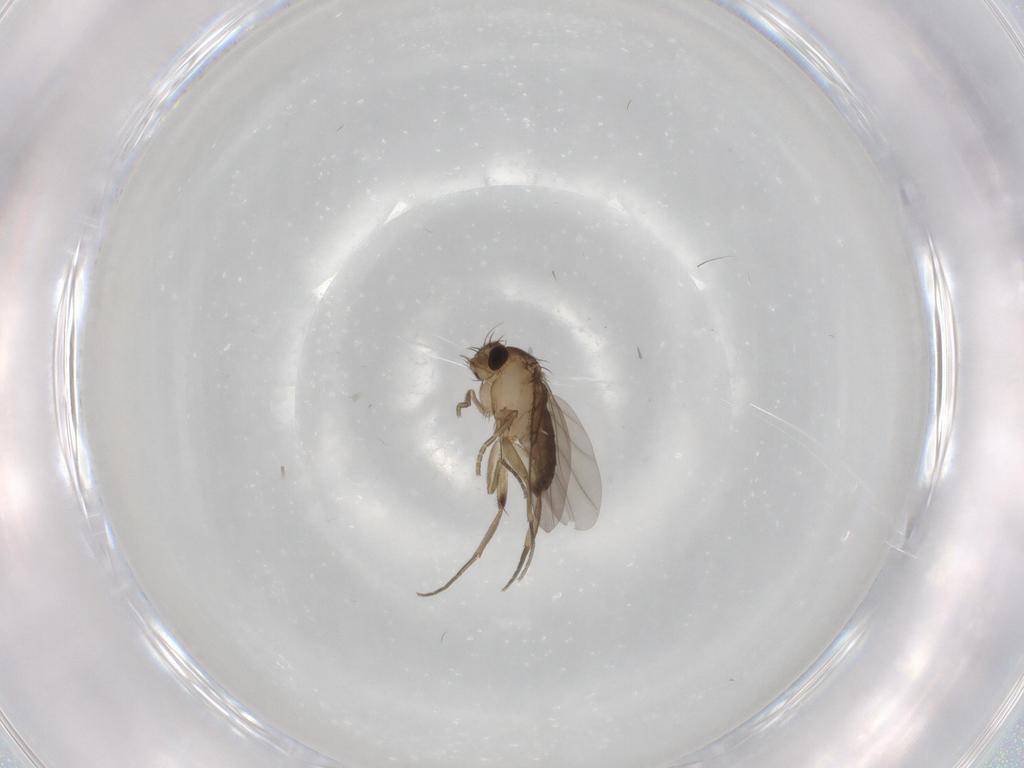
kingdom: Animalia
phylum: Arthropoda
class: Insecta
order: Diptera
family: Phoridae
